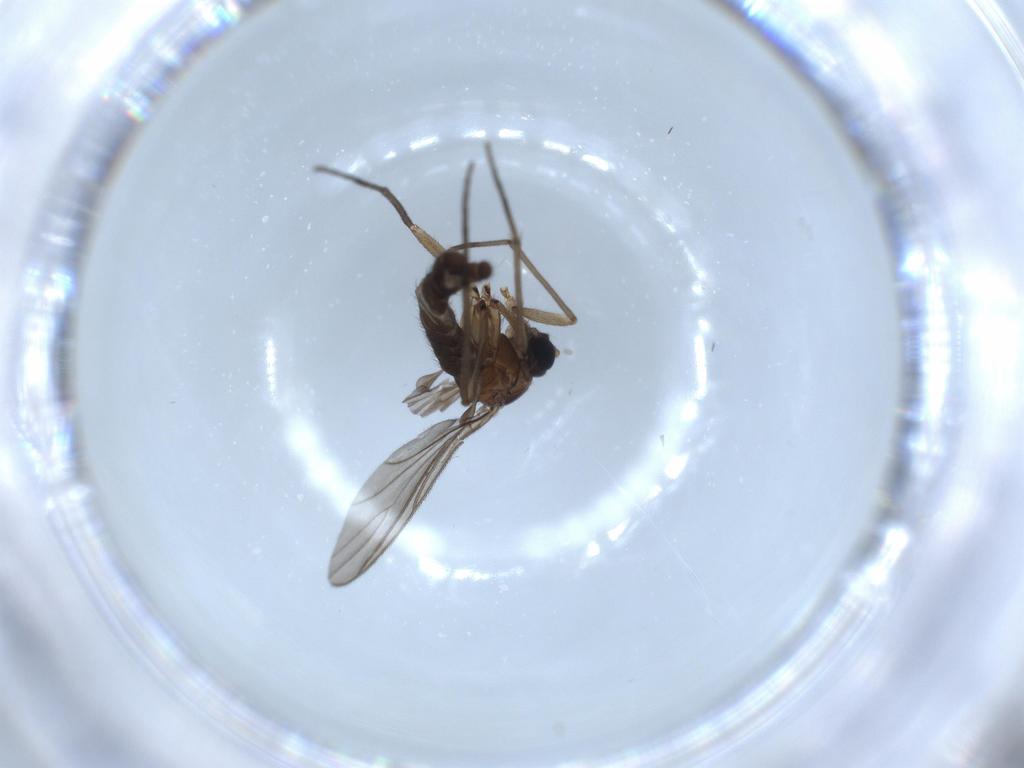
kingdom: Animalia
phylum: Arthropoda
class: Insecta
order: Diptera
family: Sciaridae
